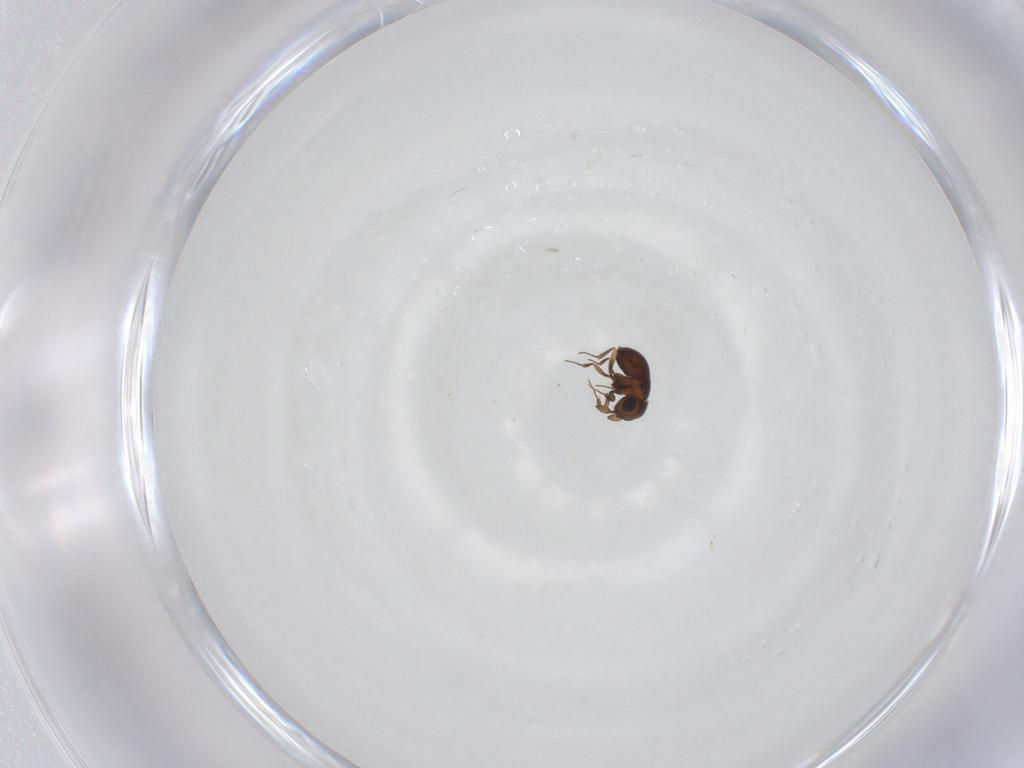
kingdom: Animalia
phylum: Arthropoda
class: Insecta
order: Hymenoptera
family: Scelionidae
